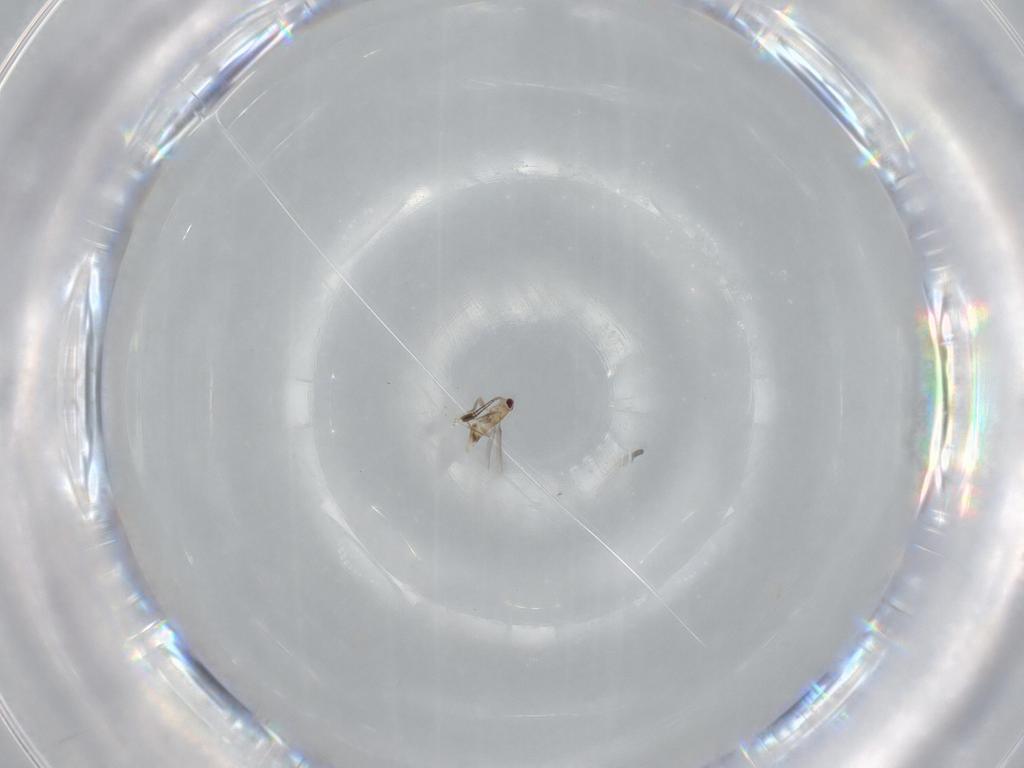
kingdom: Animalia
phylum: Arthropoda
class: Insecta
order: Hymenoptera
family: Mymaridae
